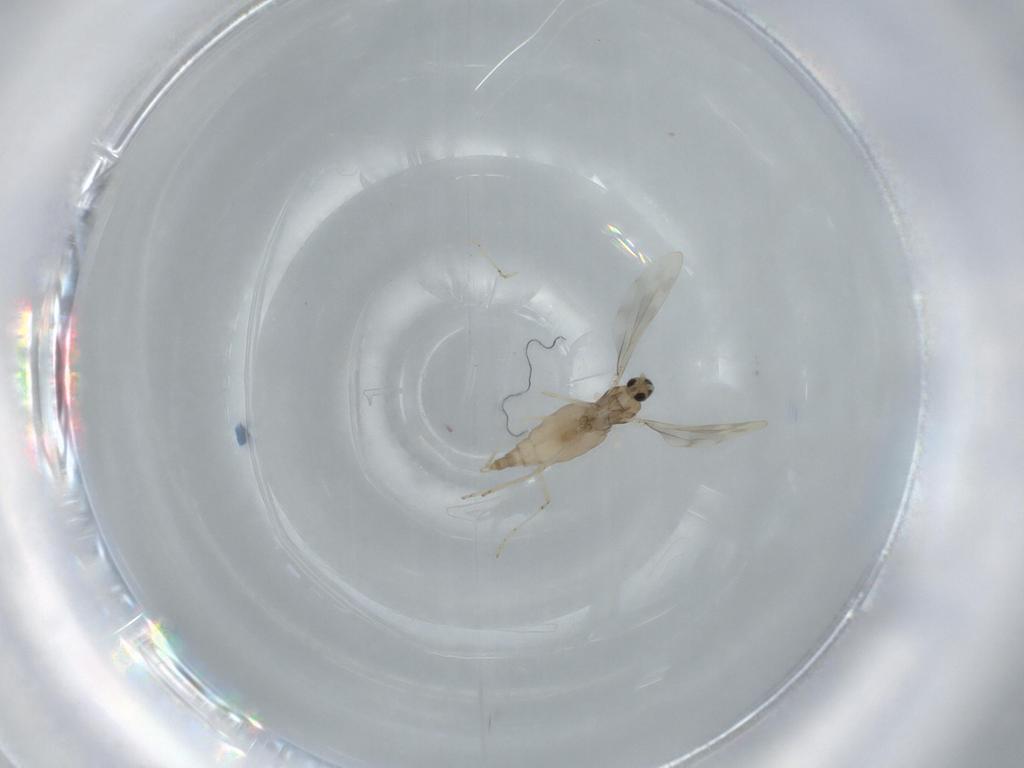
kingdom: Animalia
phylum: Arthropoda
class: Insecta
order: Diptera
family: Cecidomyiidae
